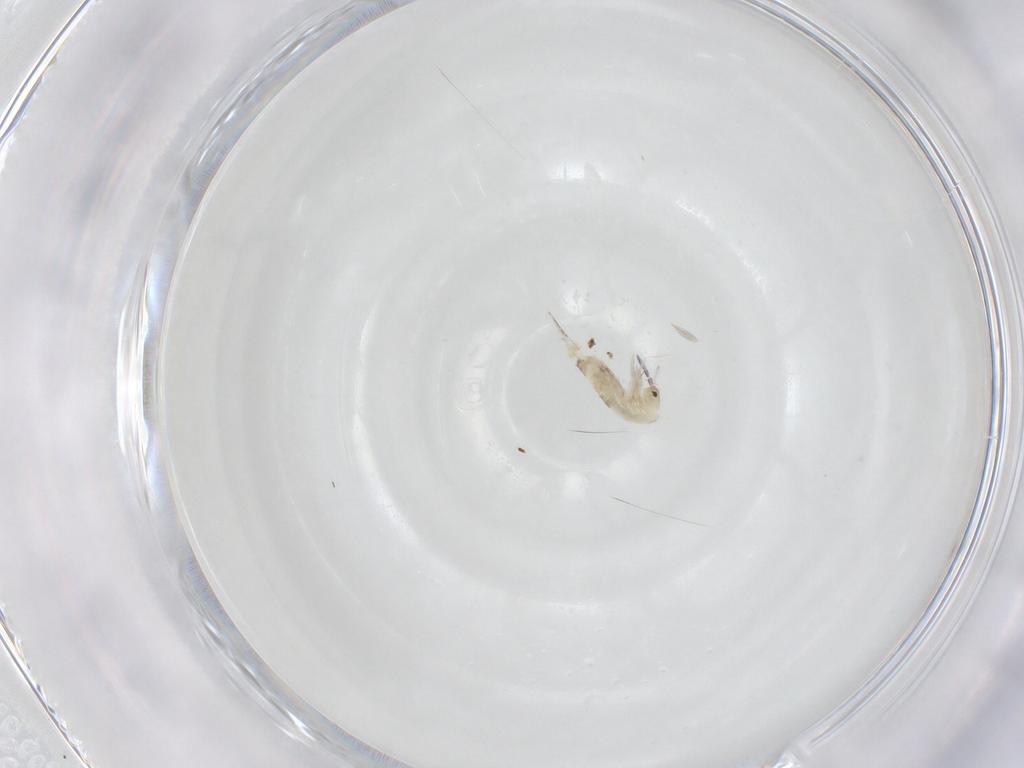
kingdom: Animalia
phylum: Arthropoda
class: Collembola
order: Entomobryomorpha
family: Entomobryidae
